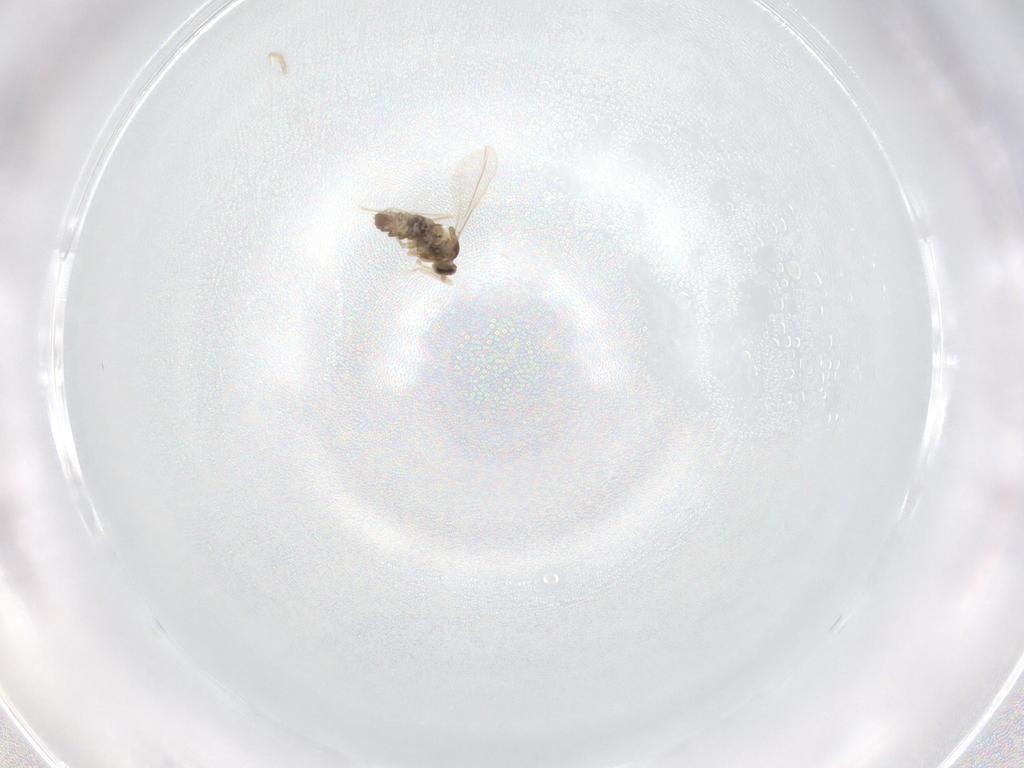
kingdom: Animalia
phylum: Arthropoda
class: Insecta
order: Diptera
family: Cecidomyiidae
